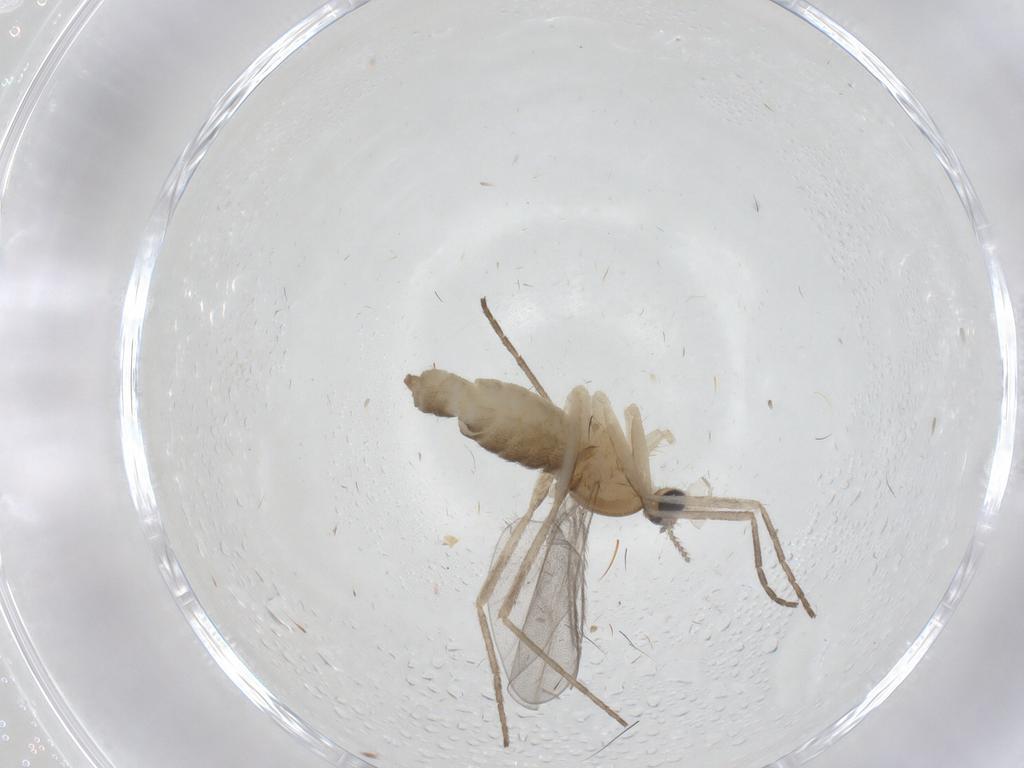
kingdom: Animalia
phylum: Arthropoda
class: Insecta
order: Diptera
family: Cecidomyiidae
